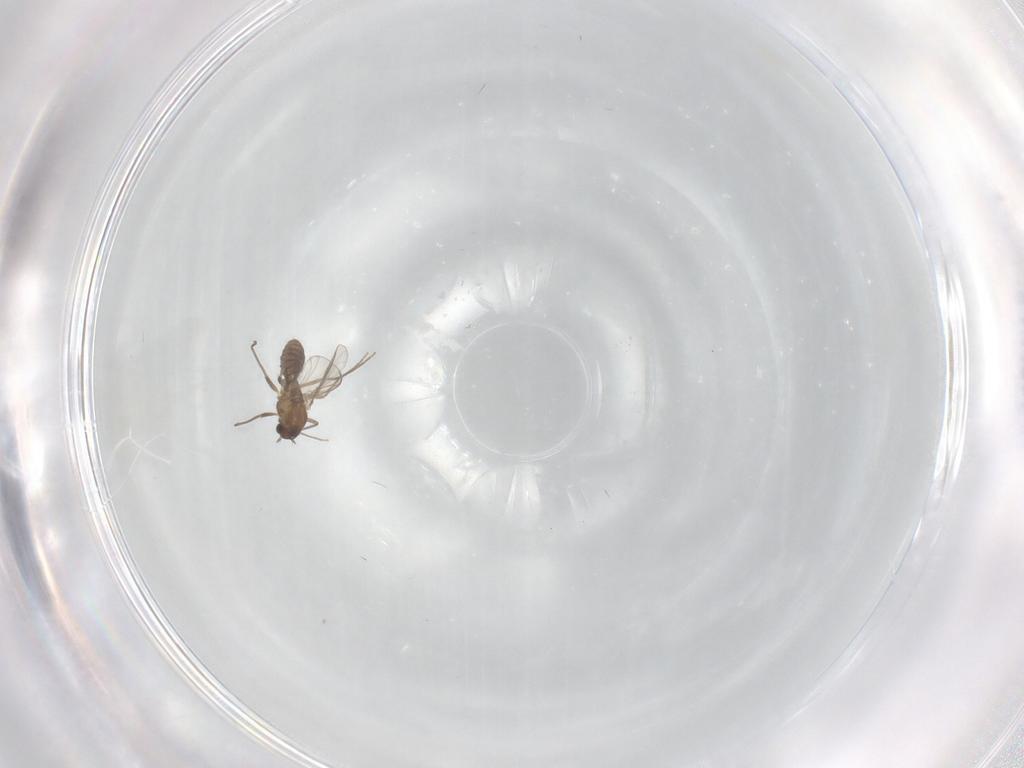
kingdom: Animalia
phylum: Arthropoda
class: Insecta
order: Diptera
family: Chironomidae
